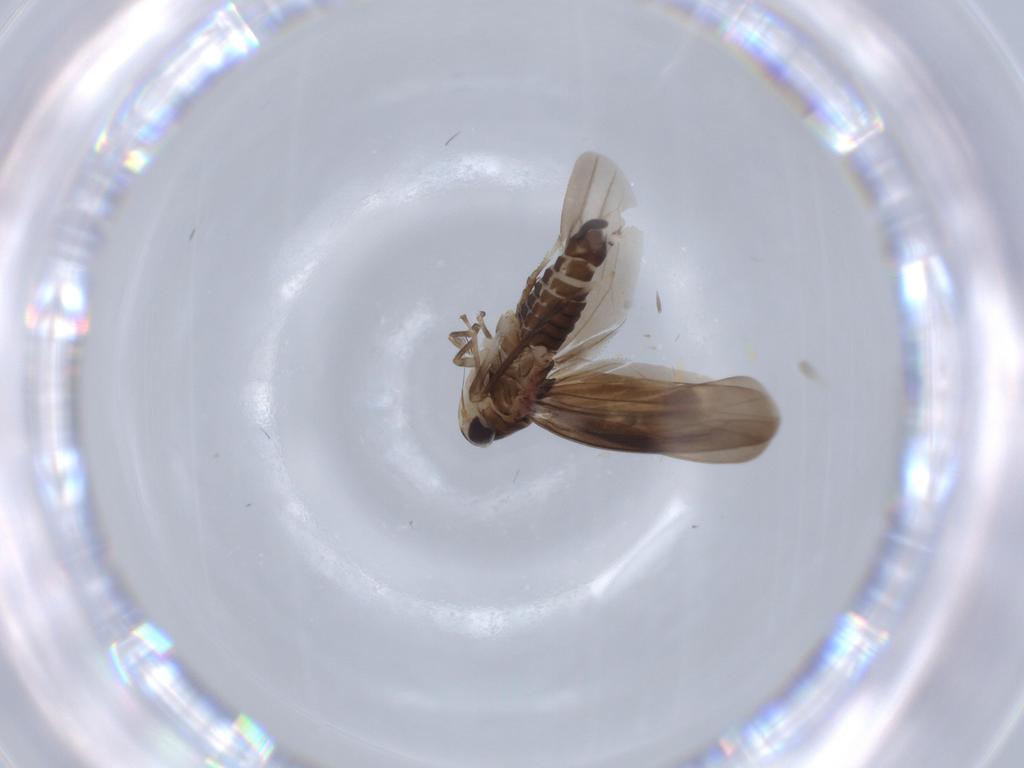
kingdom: Animalia
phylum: Arthropoda
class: Insecta
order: Hemiptera
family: Cicadellidae
